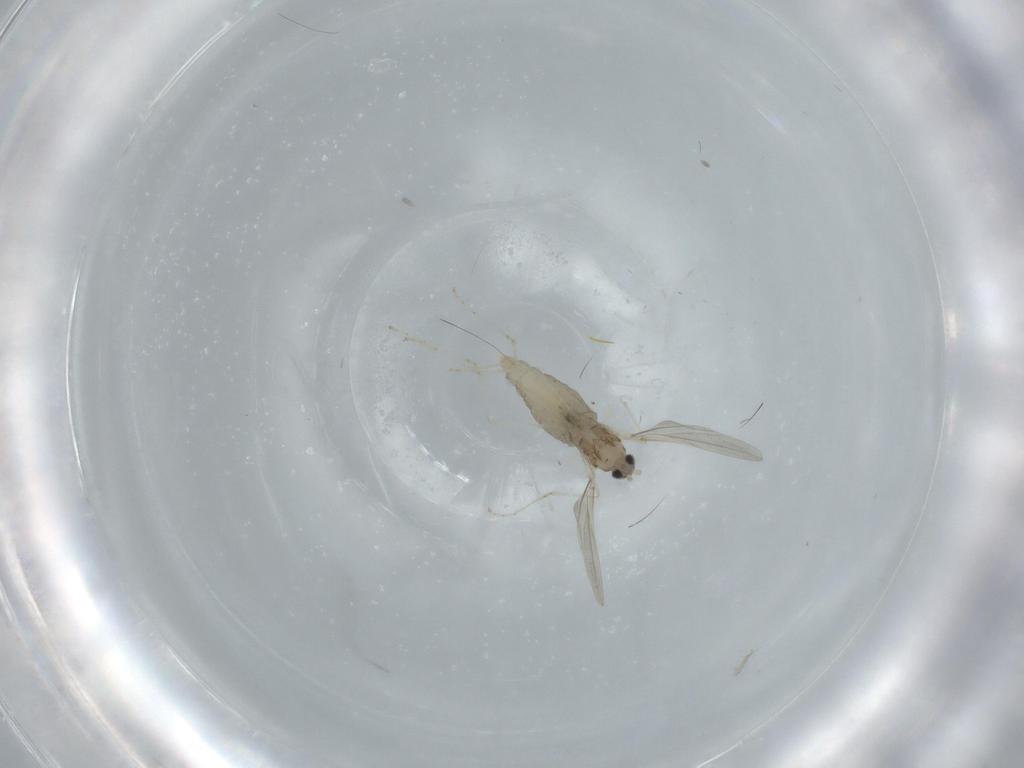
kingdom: Animalia
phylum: Arthropoda
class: Insecta
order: Diptera
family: Cecidomyiidae
